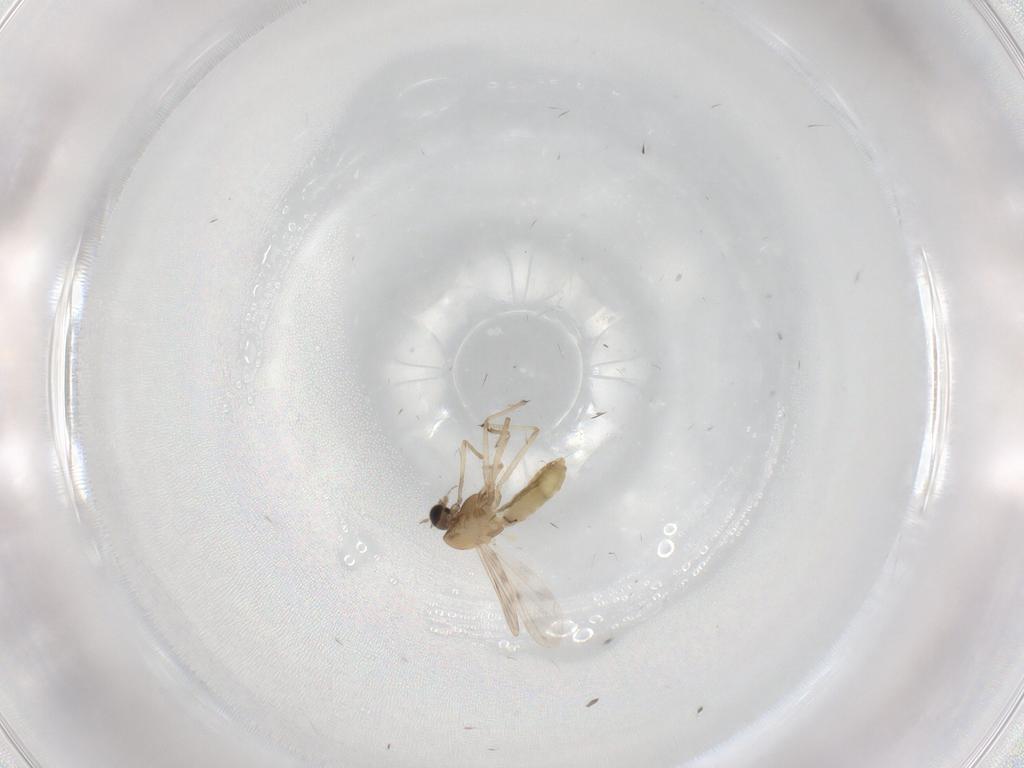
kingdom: Animalia
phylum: Arthropoda
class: Insecta
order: Diptera
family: Chironomidae
